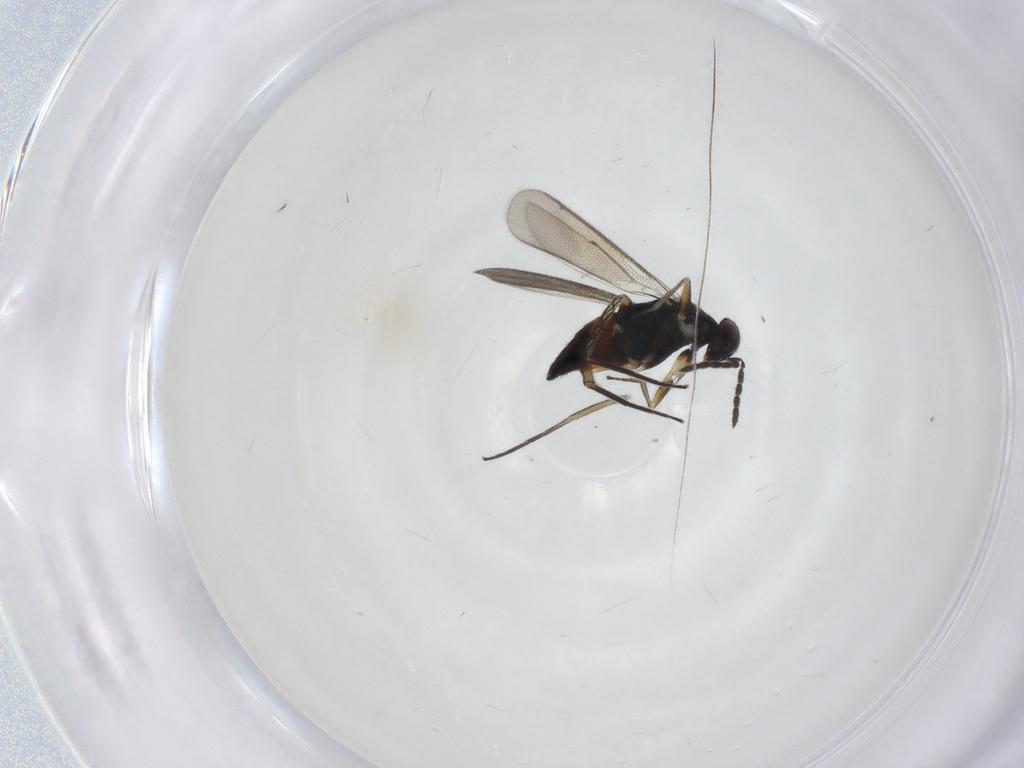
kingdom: Animalia
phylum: Arthropoda
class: Insecta
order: Hymenoptera
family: Eulophidae
